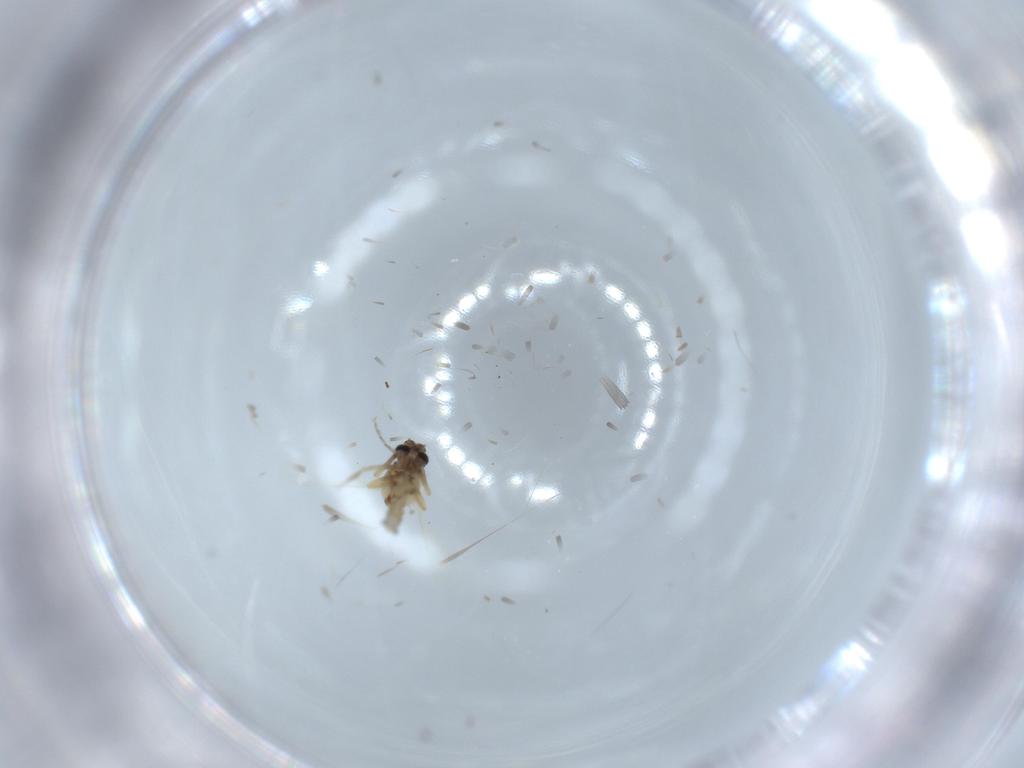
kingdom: Animalia
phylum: Arthropoda
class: Insecta
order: Diptera
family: Ceratopogonidae
